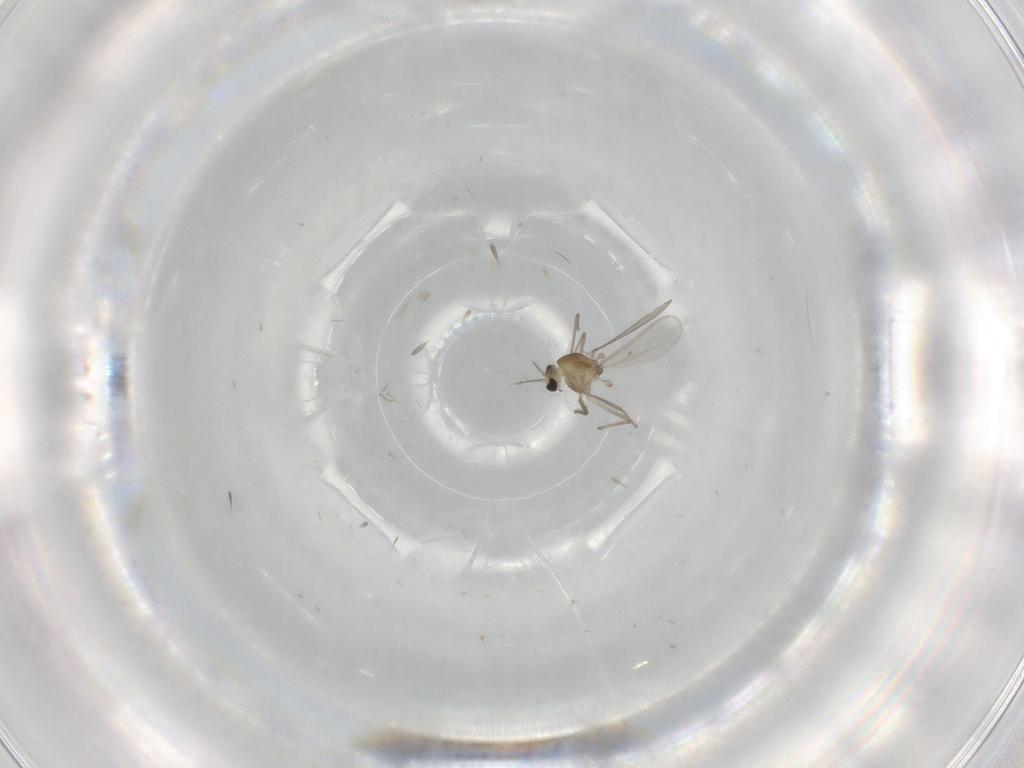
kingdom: Animalia
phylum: Arthropoda
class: Insecta
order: Diptera
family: Chironomidae
